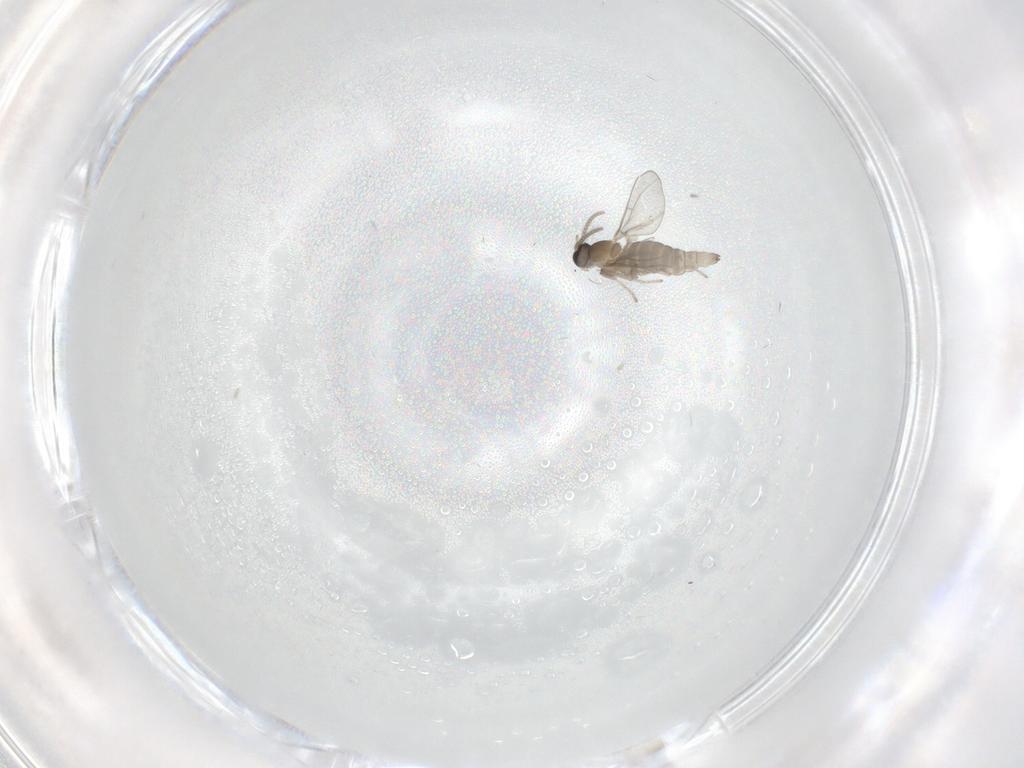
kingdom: Animalia
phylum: Arthropoda
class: Insecta
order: Diptera
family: Cecidomyiidae
